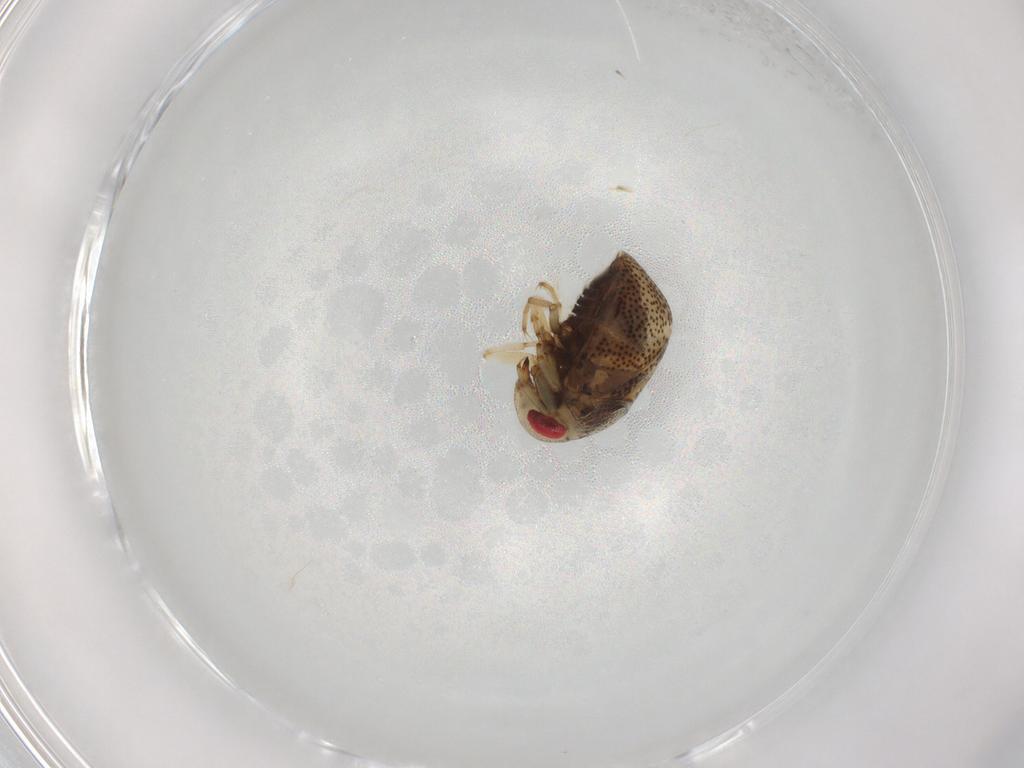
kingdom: Animalia
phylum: Arthropoda
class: Insecta
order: Hemiptera
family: Pleidae
